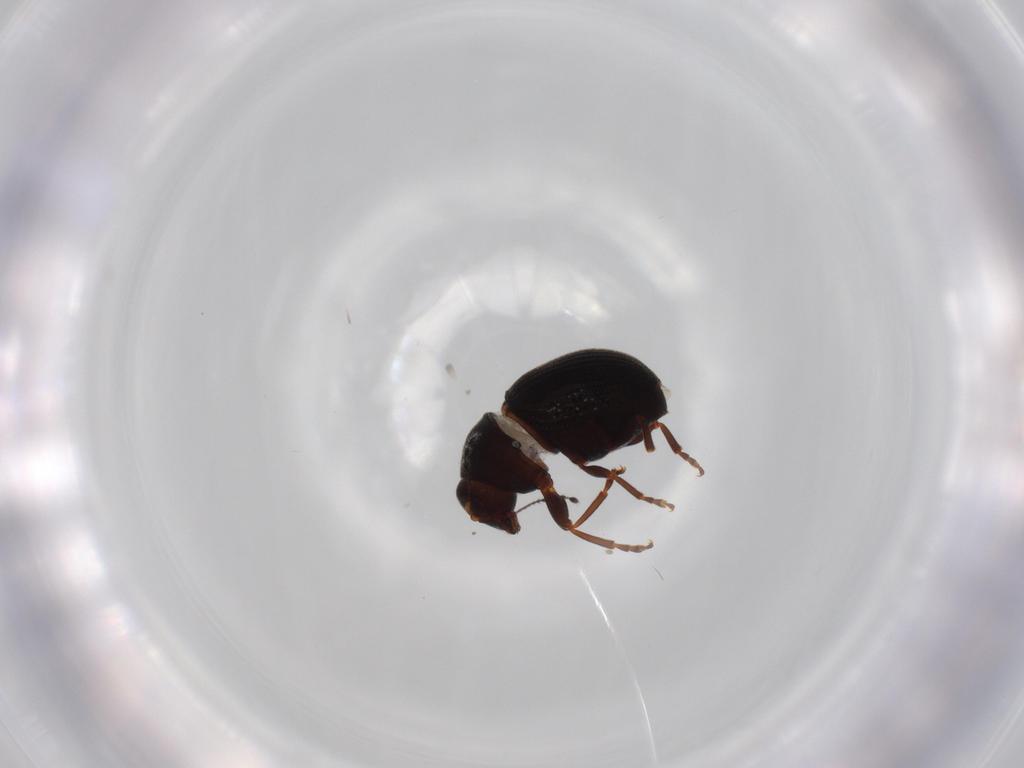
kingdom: Animalia
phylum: Arthropoda
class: Insecta
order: Coleoptera
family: Anthribidae
